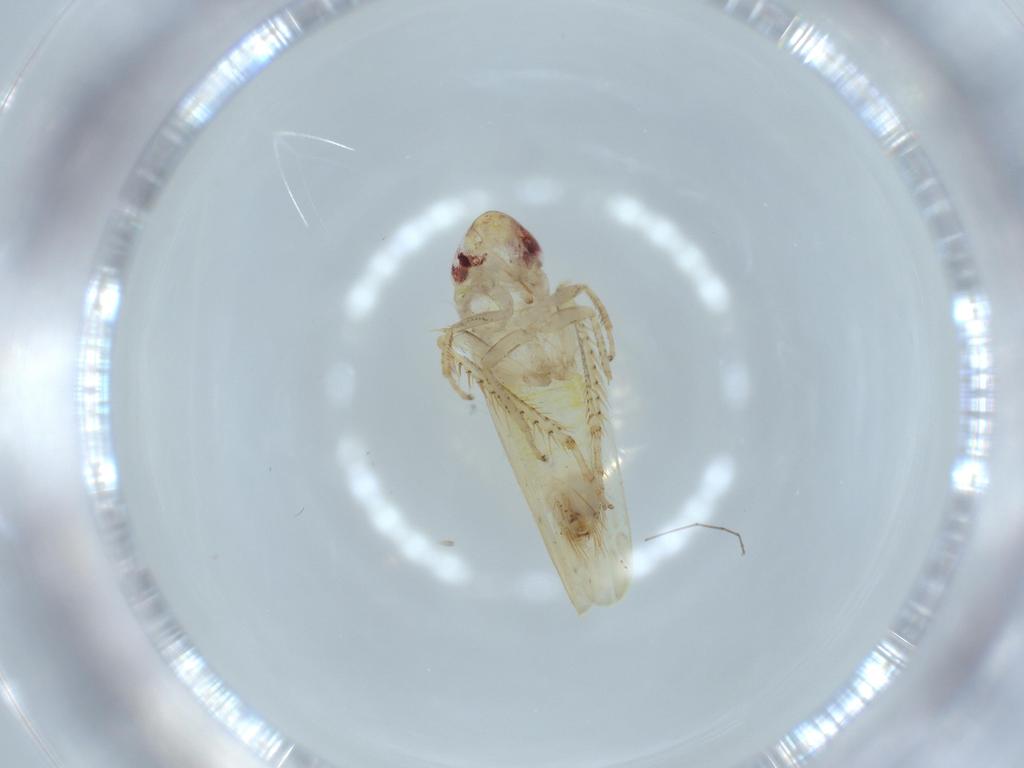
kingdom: Animalia
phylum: Arthropoda
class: Insecta
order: Hemiptera
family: Cicadellidae
